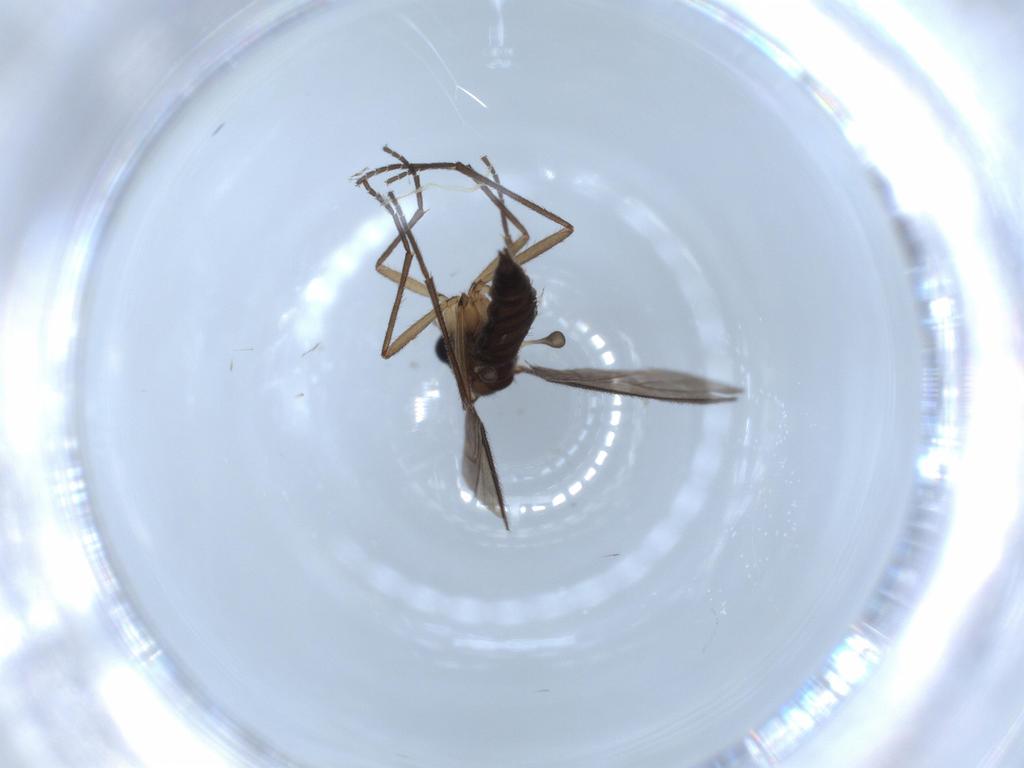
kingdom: Animalia
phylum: Arthropoda
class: Insecta
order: Diptera
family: Sciaridae
